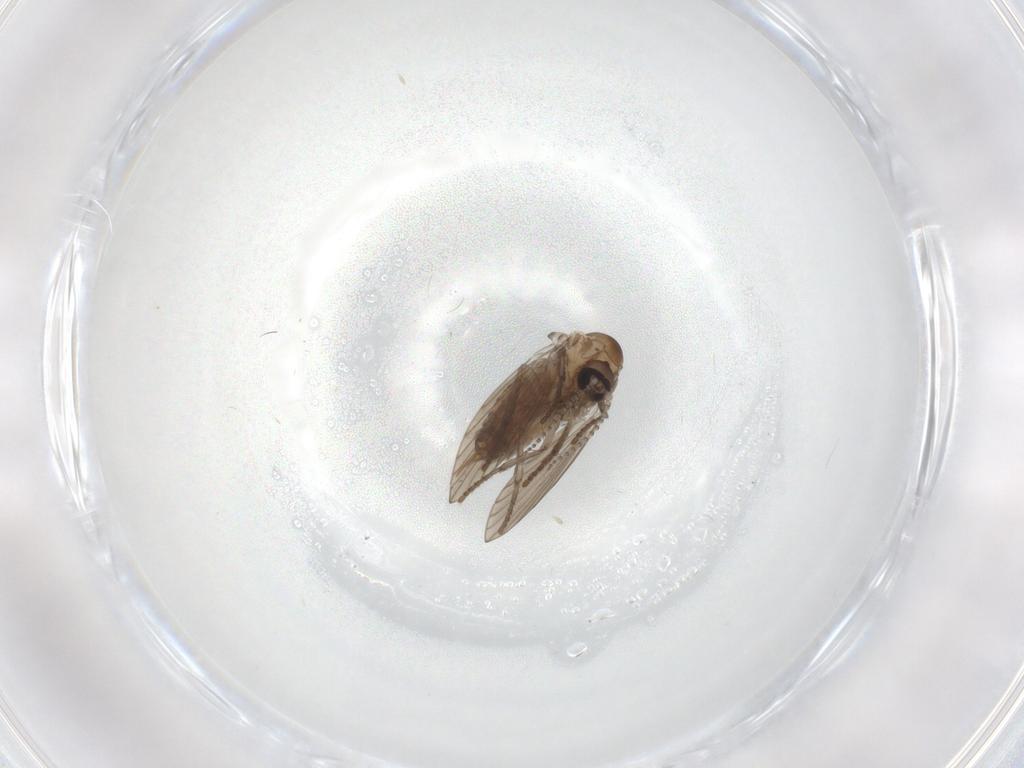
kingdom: Animalia
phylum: Arthropoda
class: Insecta
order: Diptera
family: Psychodidae
